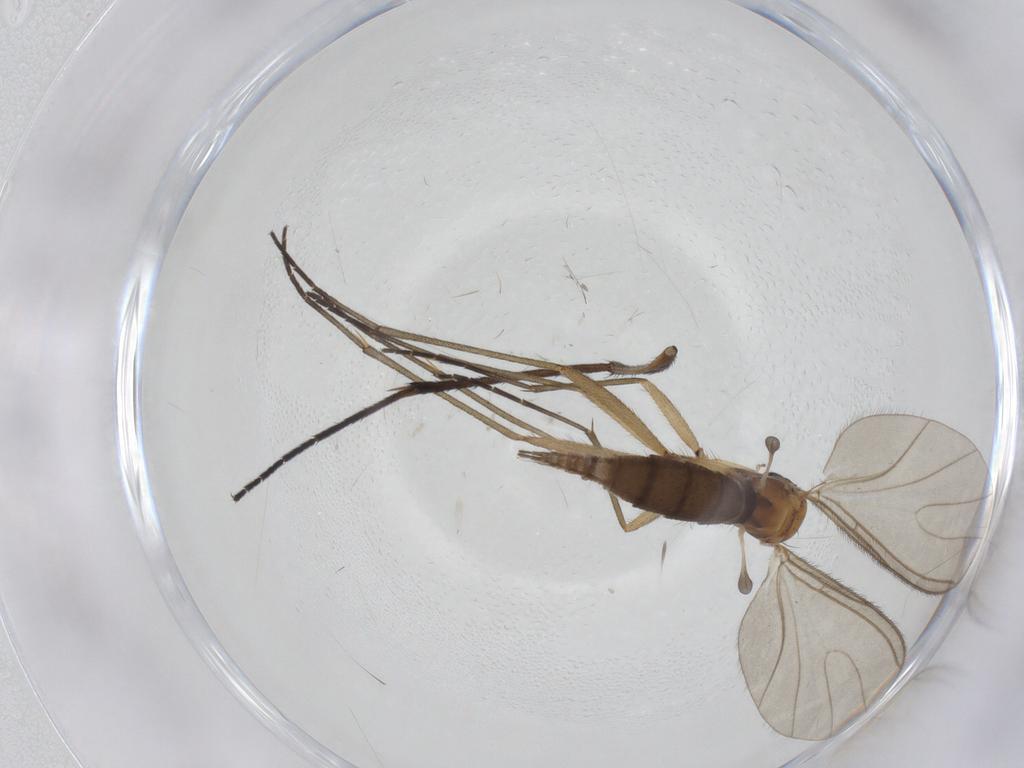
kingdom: Animalia
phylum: Arthropoda
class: Insecta
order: Diptera
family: Sciaridae
